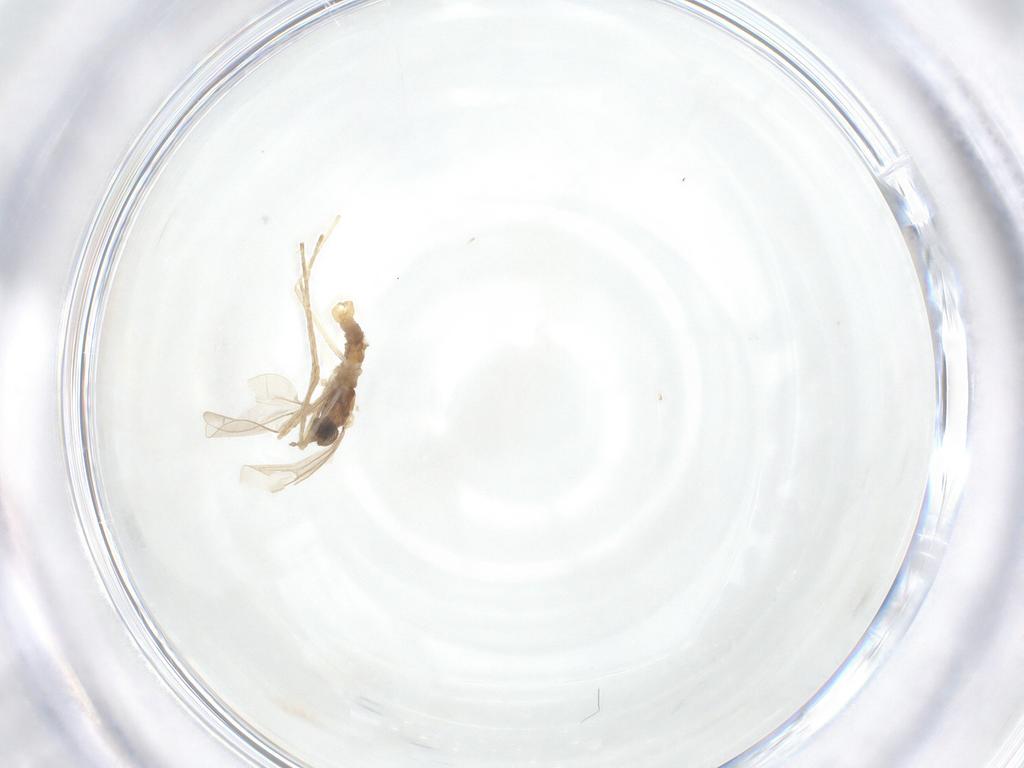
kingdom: Animalia
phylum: Arthropoda
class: Insecta
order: Diptera
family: Cecidomyiidae
